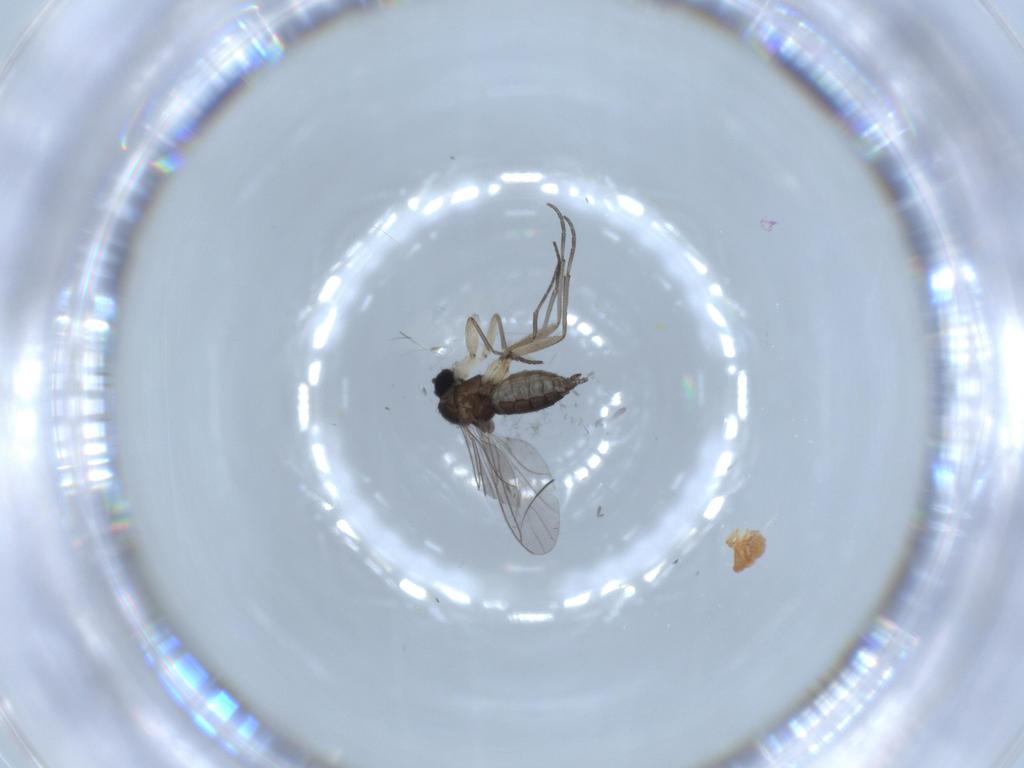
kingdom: Animalia
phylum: Arthropoda
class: Insecta
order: Diptera
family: Sciaridae
